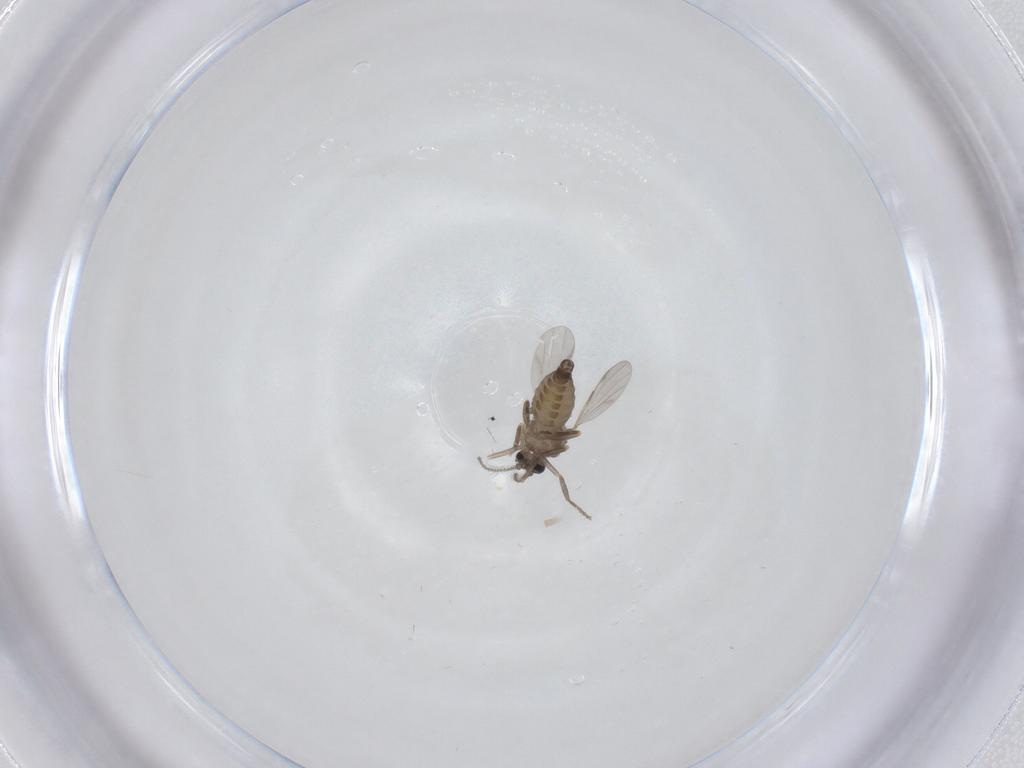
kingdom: Animalia
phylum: Arthropoda
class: Insecta
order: Diptera
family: Ceratopogonidae
